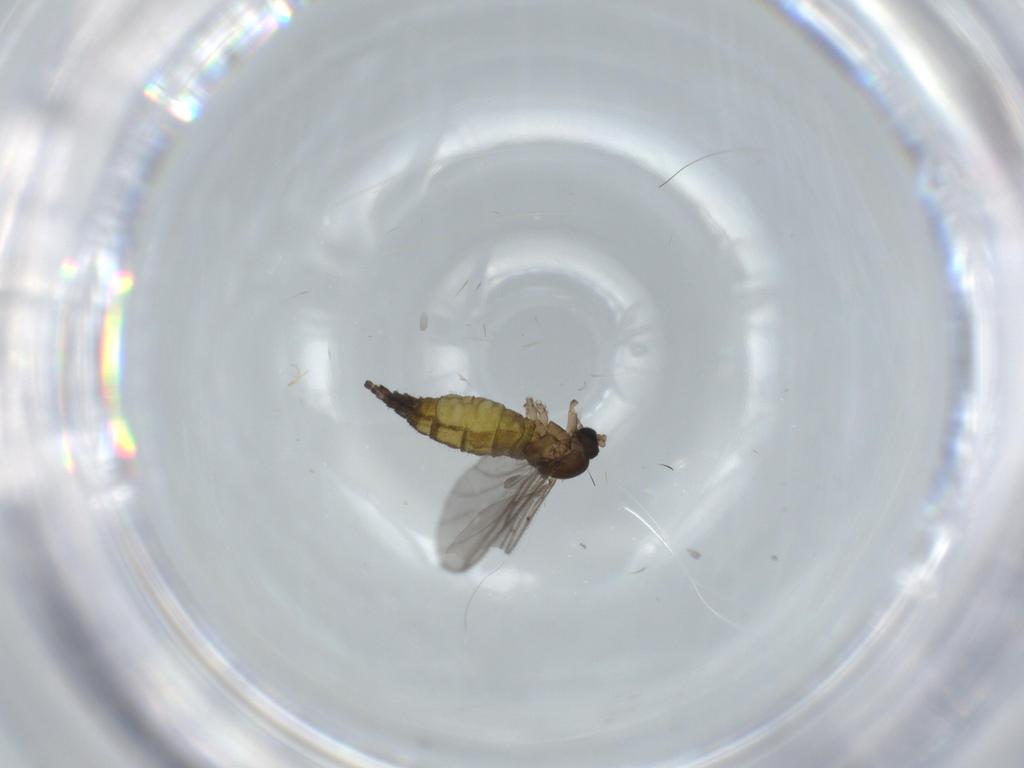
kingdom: Animalia
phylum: Arthropoda
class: Insecta
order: Diptera
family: Sciaridae
